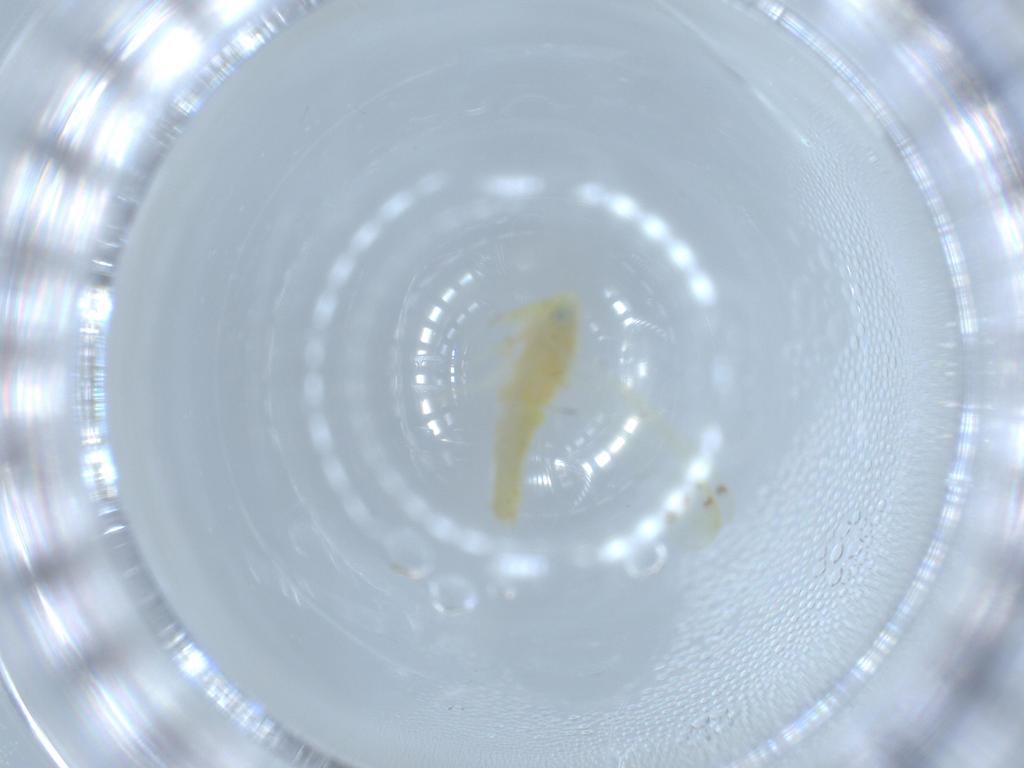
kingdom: Animalia
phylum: Arthropoda
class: Insecta
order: Hemiptera
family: Cicadellidae
